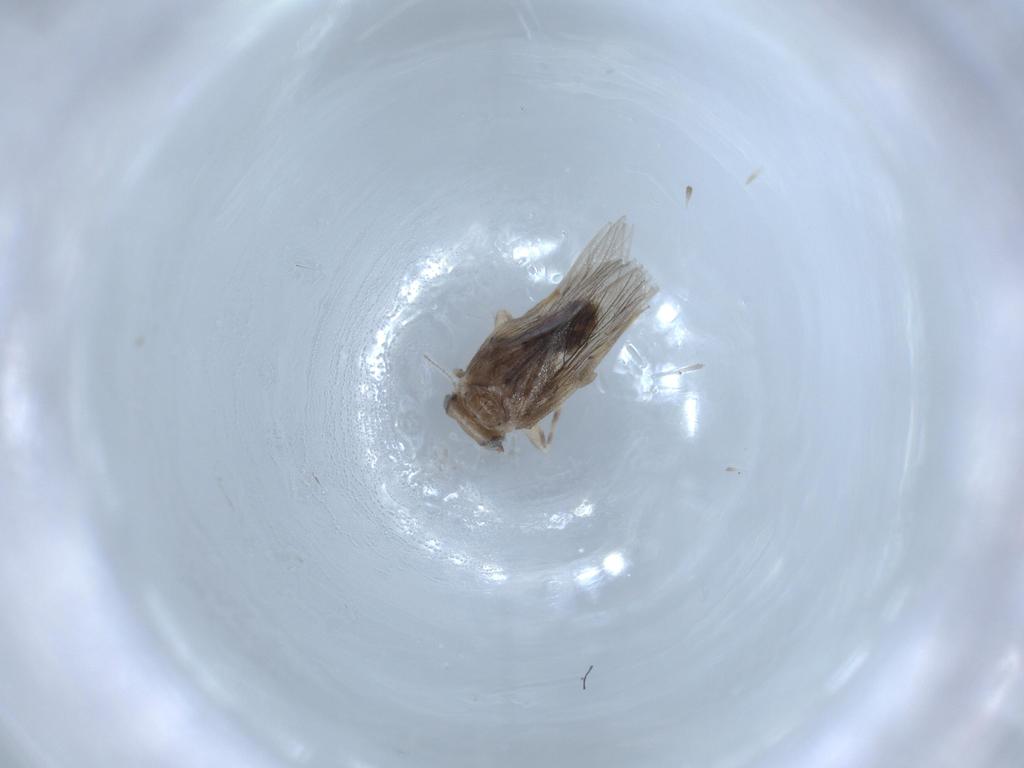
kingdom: Animalia
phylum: Arthropoda
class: Insecta
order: Psocodea
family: Lepidopsocidae
